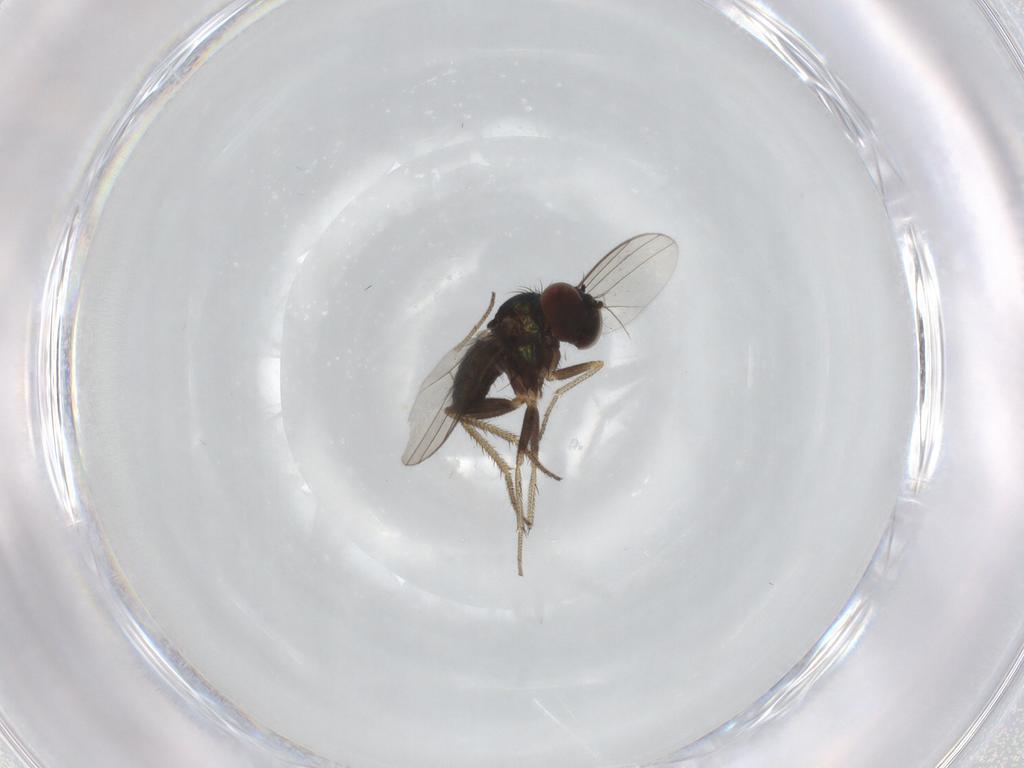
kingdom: Animalia
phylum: Arthropoda
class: Insecta
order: Diptera
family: Dolichopodidae
